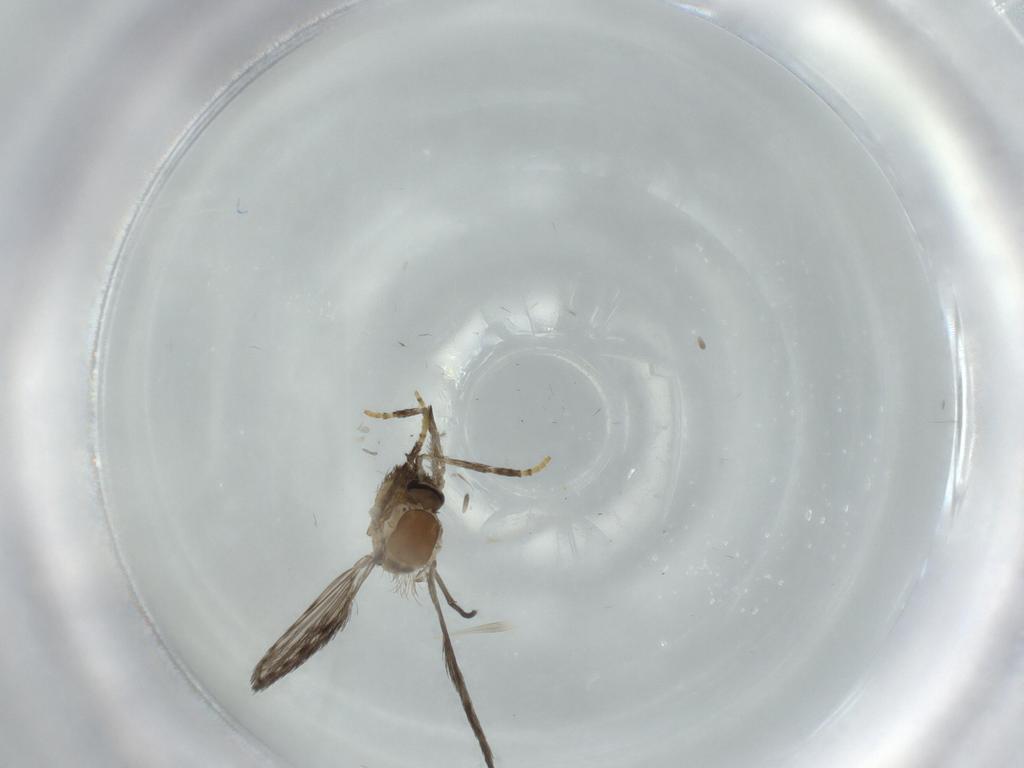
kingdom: Animalia
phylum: Arthropoda
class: Insecta
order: Diptera
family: Psychodidae
